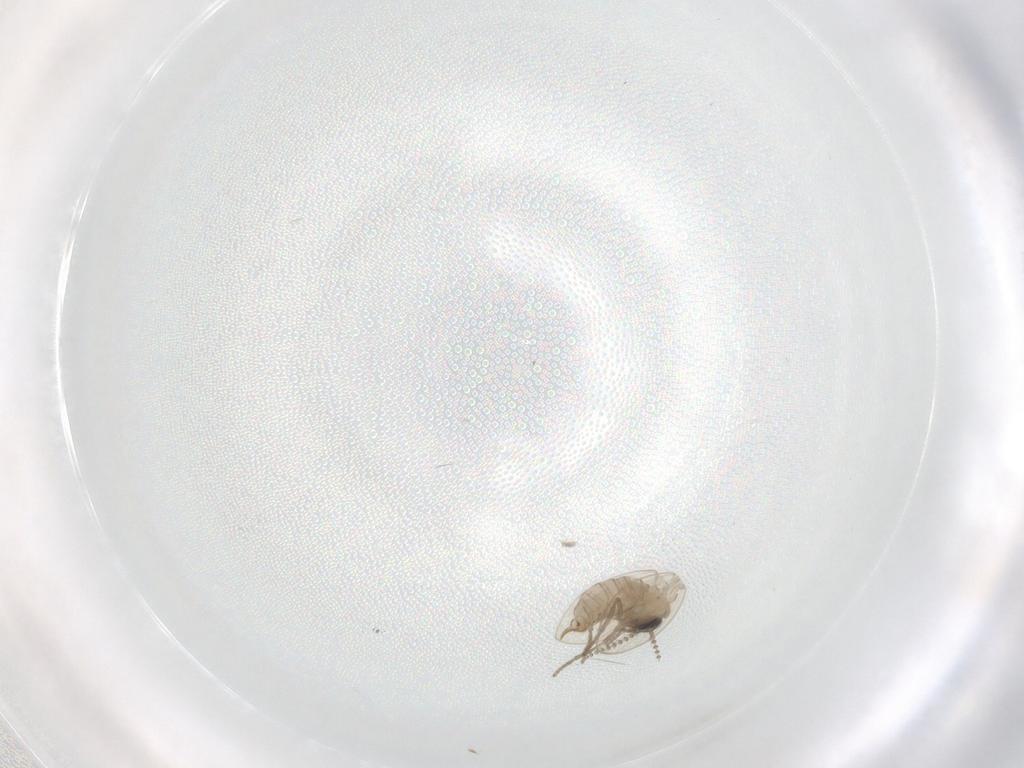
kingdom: Animalia
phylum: Arthropoda
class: Insecta
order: Diptera
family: Psychodidae
